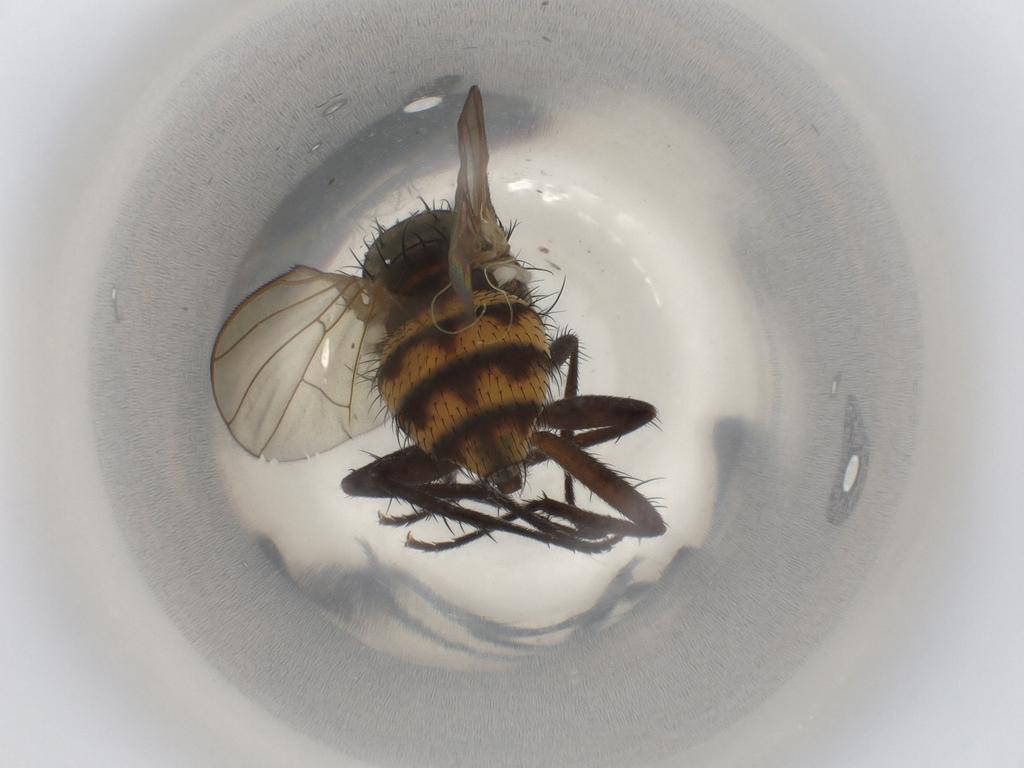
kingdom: Animalia
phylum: Arthropoda
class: Insecta
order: Diptera
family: Anthomyiidae
